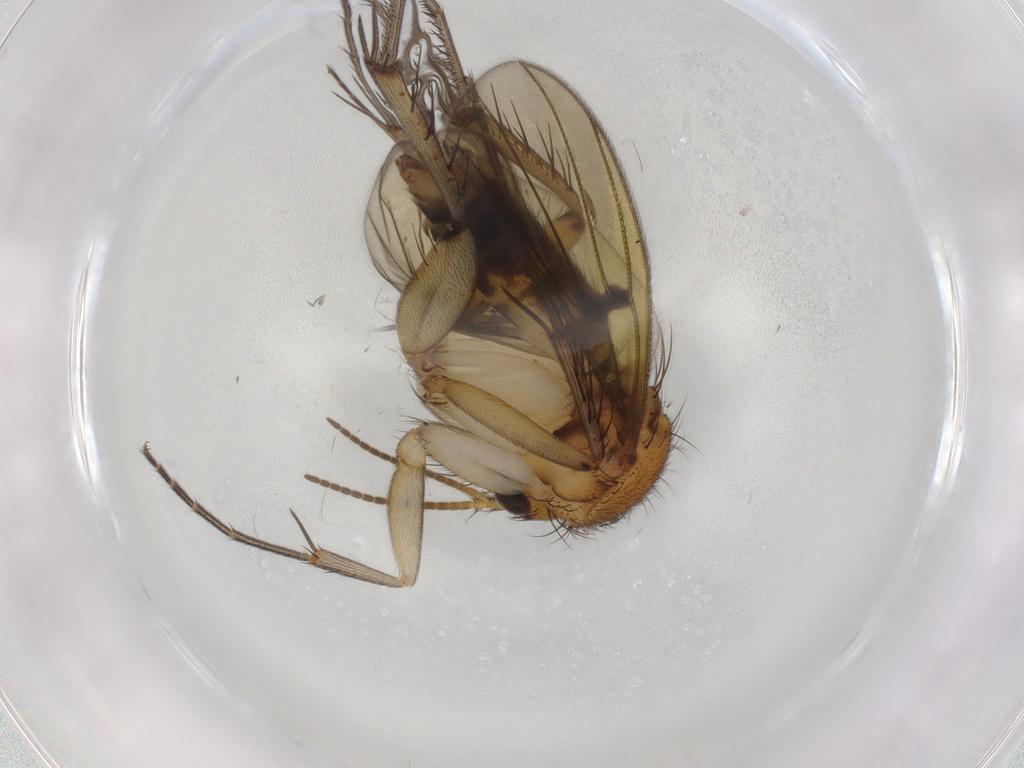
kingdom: Animalia
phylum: Arthropoda
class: Insecta
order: Diptera
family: Mycetophilidae
